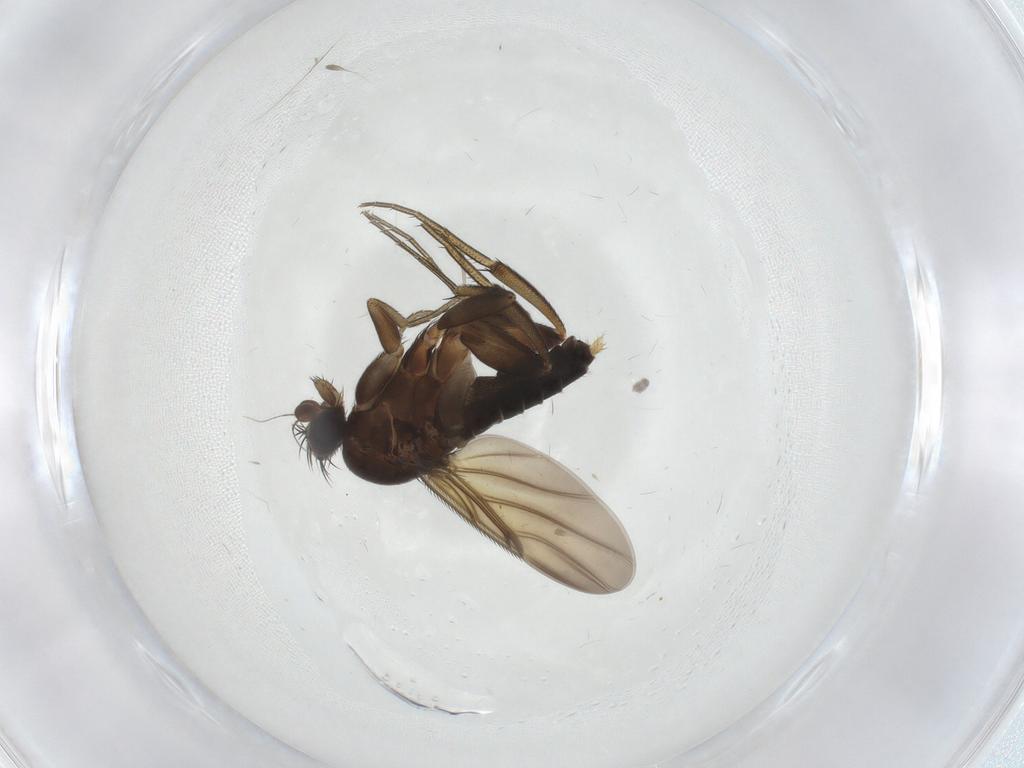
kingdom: Animalia
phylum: Arthropoda
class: Insecta
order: Diptera
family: Phoridae
